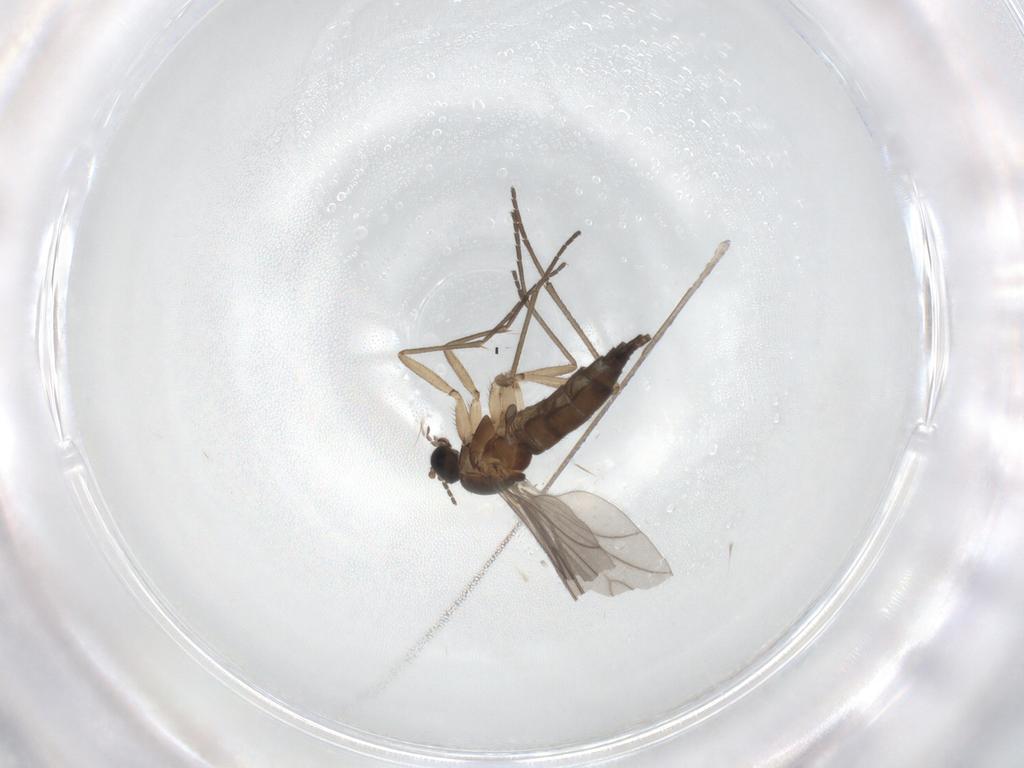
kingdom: Animalia
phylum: Arthropoda
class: Insecta
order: Diptera
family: Sciaridae
